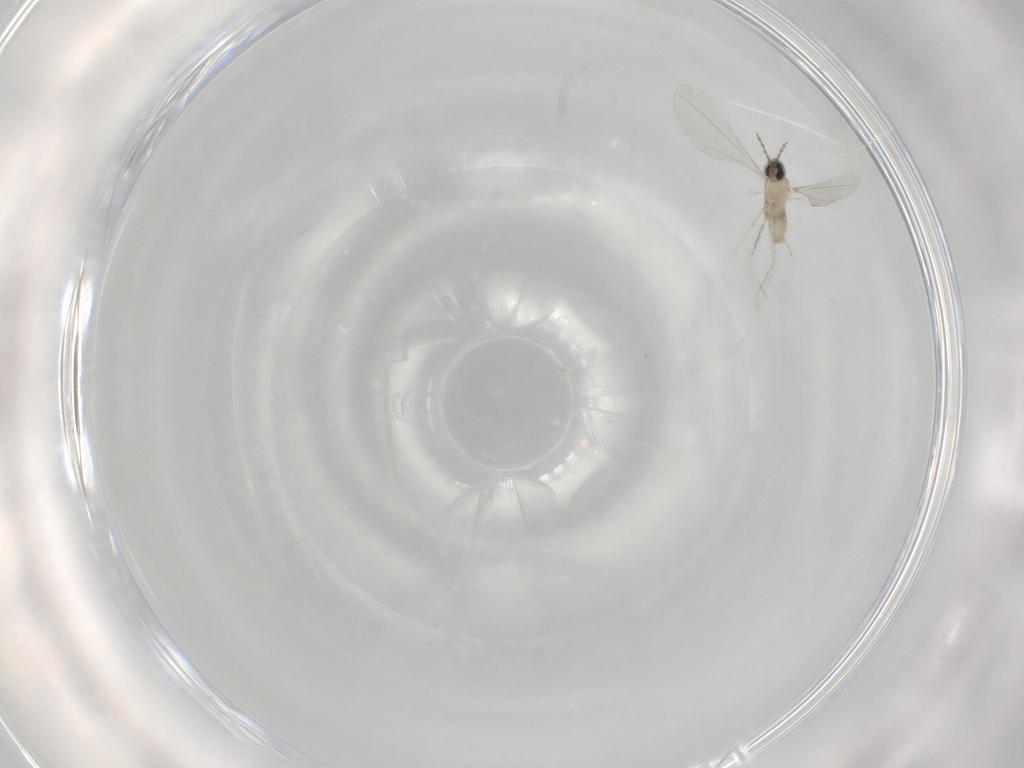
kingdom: Animalia
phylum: Arthropoda
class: Insecta
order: Diptera
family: Cecidomyiidae
